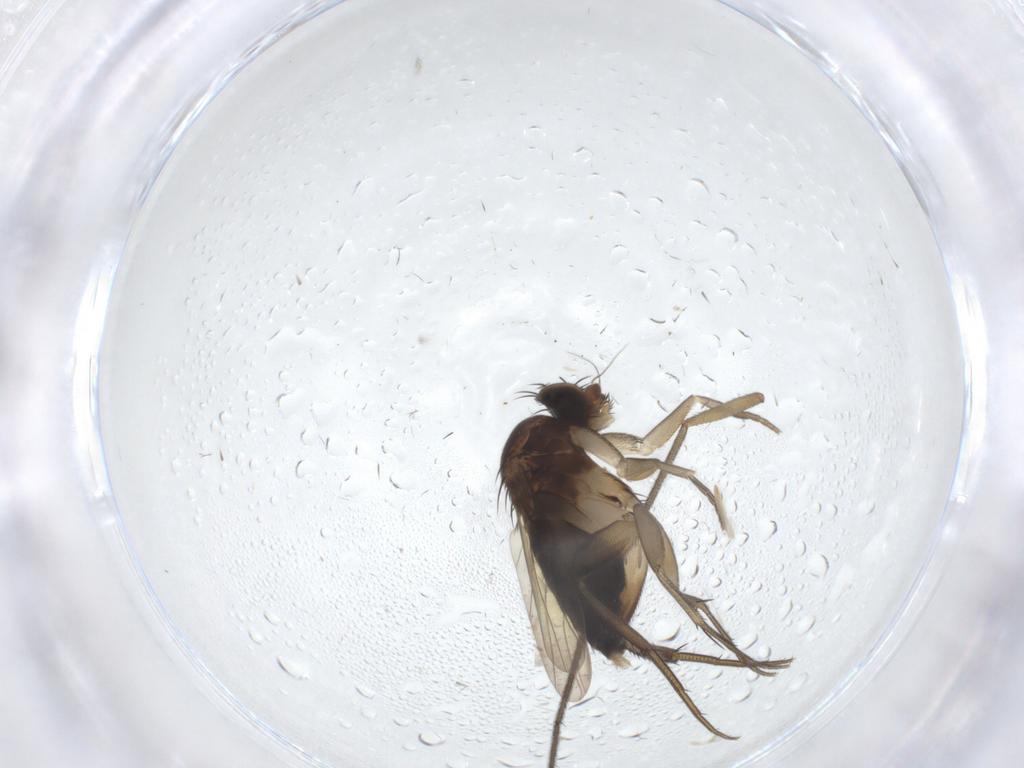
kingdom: Animalia
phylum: Arthropoda
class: Insecta
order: Diptera
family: Phoridae
